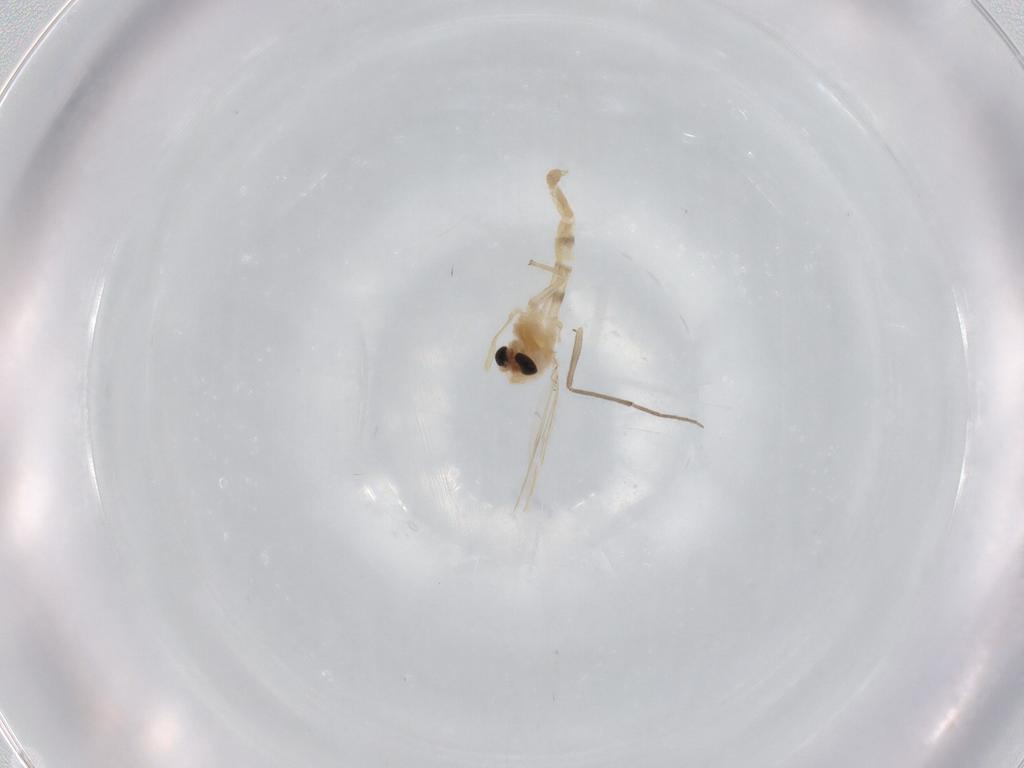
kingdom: Animalia
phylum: Arthropoda
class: Insecta
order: Diptera
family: Chironomidae
